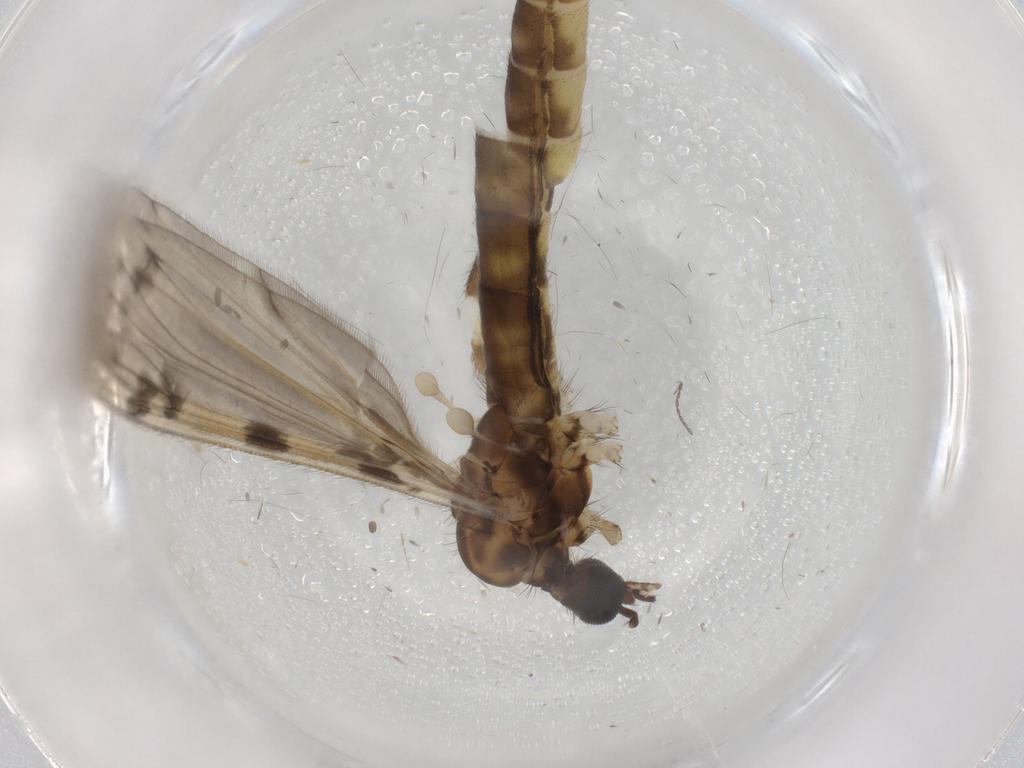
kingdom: Animalia
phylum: Arthropoda
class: Insecta
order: Diptera
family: Limoniidae
